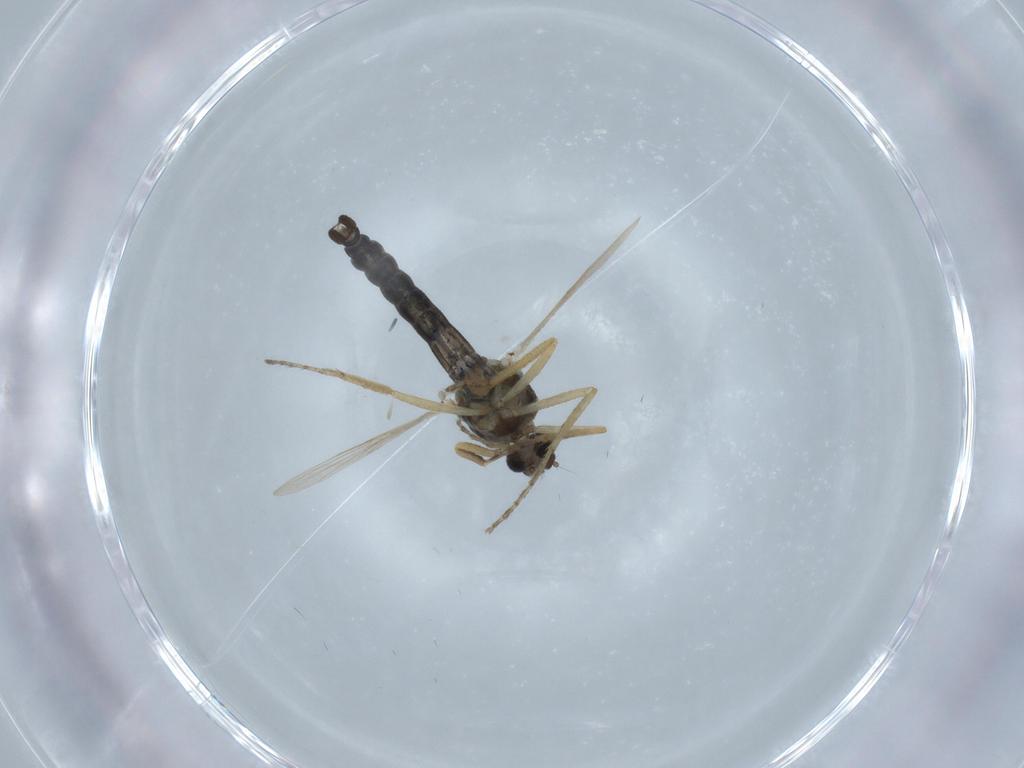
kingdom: Animalia
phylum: Arthropoda
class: Insecta
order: Diptera
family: Ceratopogonidae
